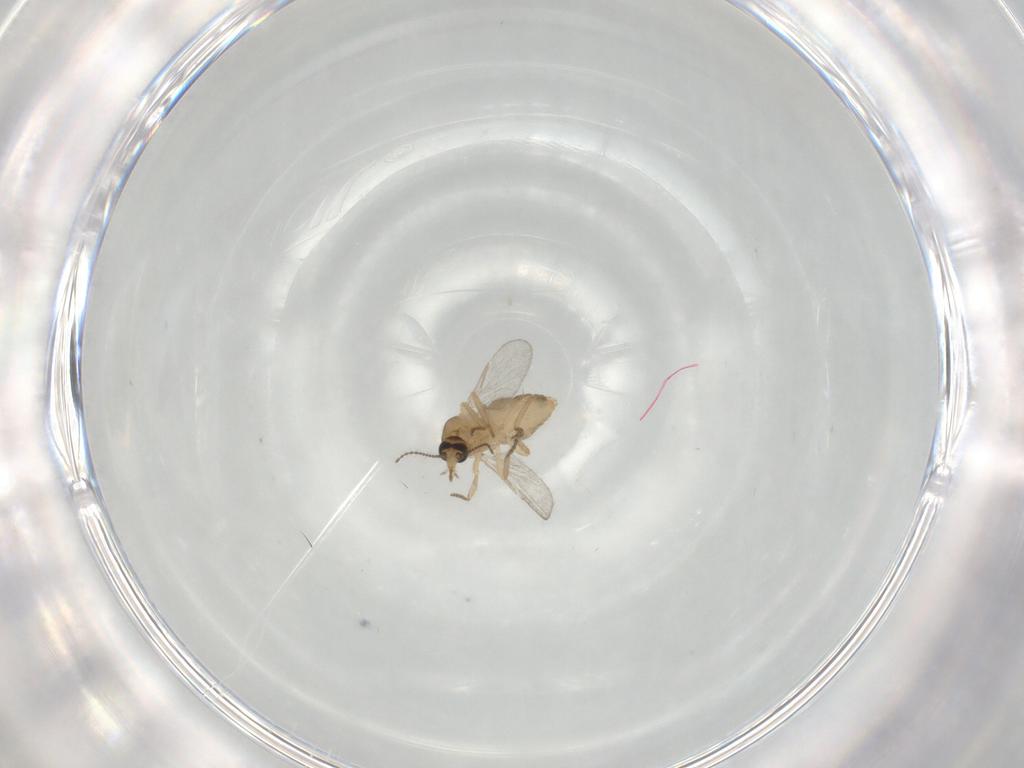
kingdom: Animalia
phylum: Arthropoda
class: Insecta
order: Diptera
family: Ceratopogonidae
